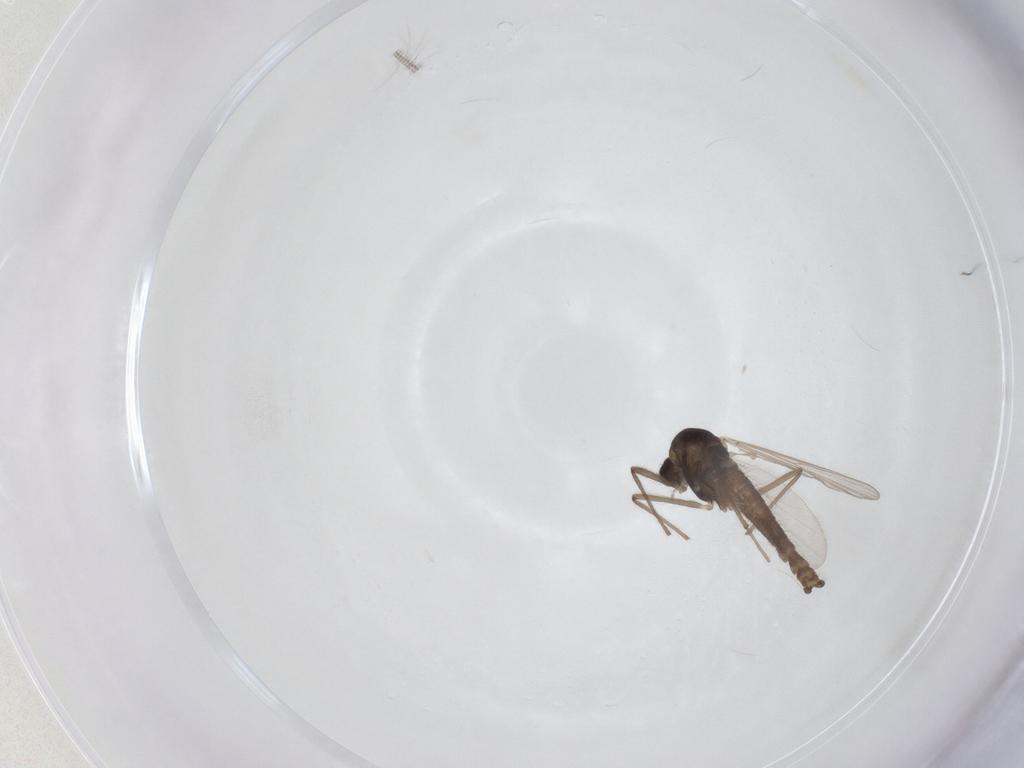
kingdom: Animalia
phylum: Arthropoda
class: Insecta
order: Diptera
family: Chironomidae
